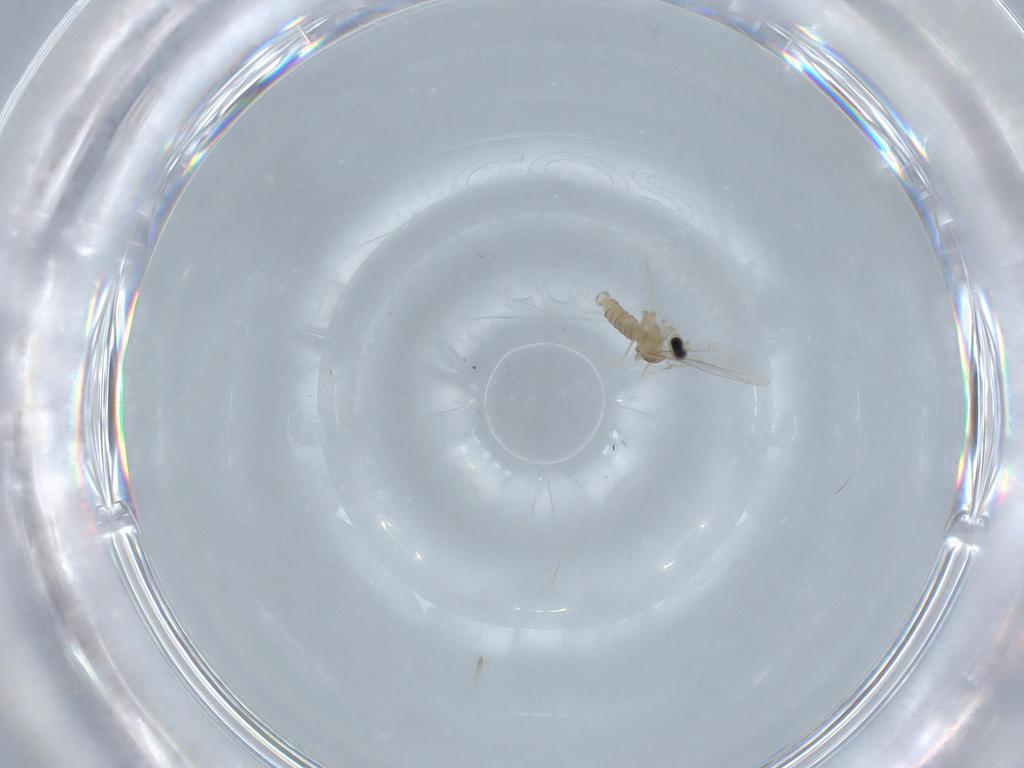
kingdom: Animalia
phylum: Arthropoda
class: Insecta
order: Diptera
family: Cecidomyiidae
